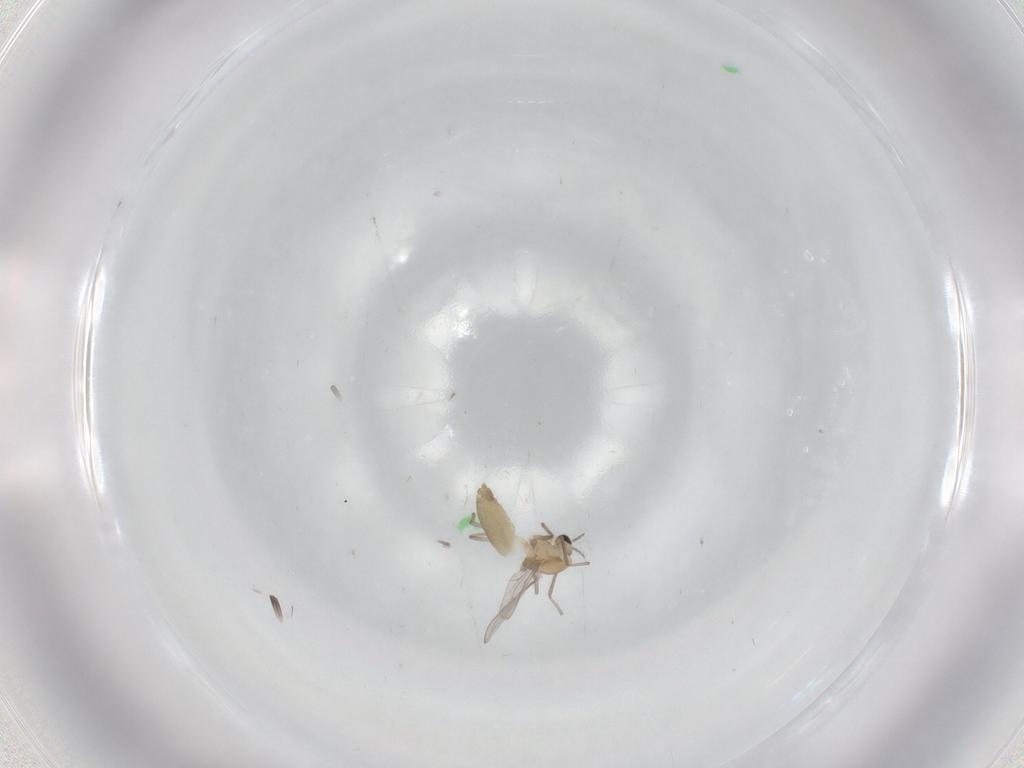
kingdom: Animalia
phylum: Arthropoda
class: Insecta
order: Diptera
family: Chironomidae
